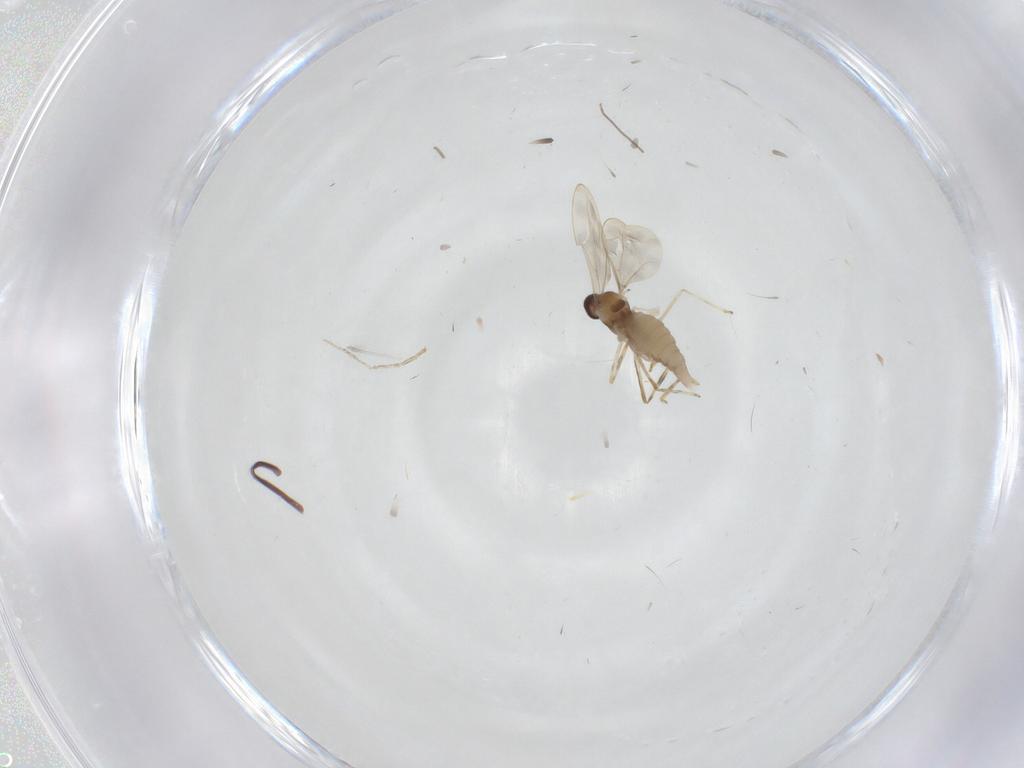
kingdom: Animalia
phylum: Arthropoda
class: Insecta
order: Diptera
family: Cecidomyiidae
